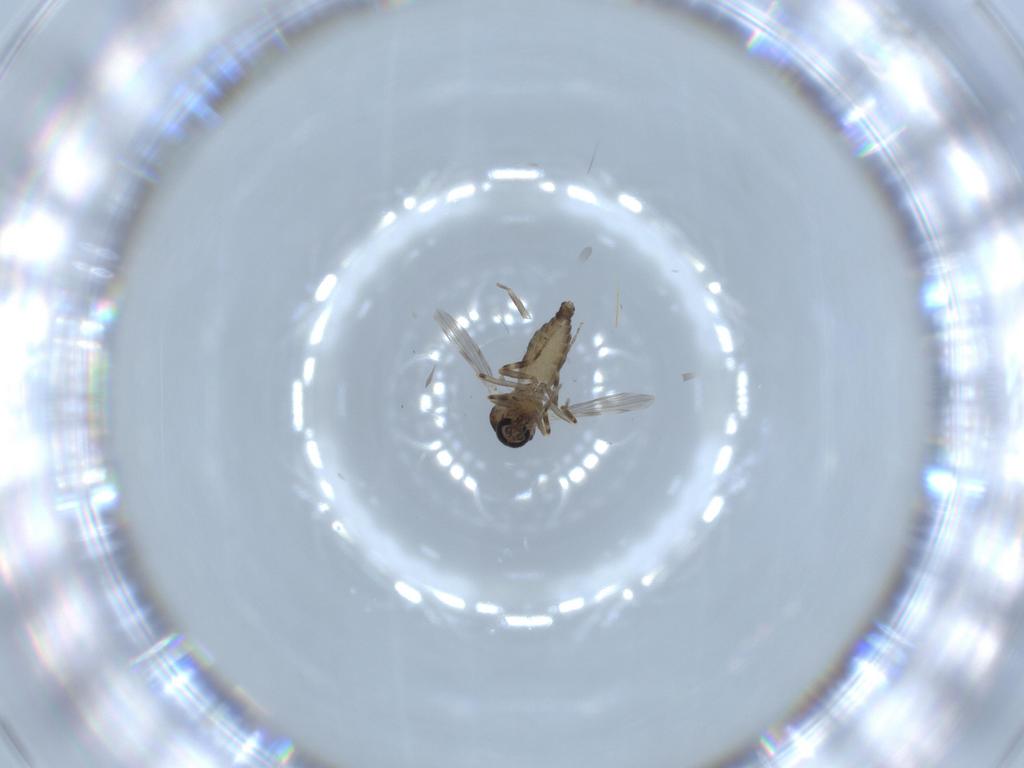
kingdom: Animalia
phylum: Arthropoda
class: Insecta
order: Diptera
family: Ceratopogonidae
